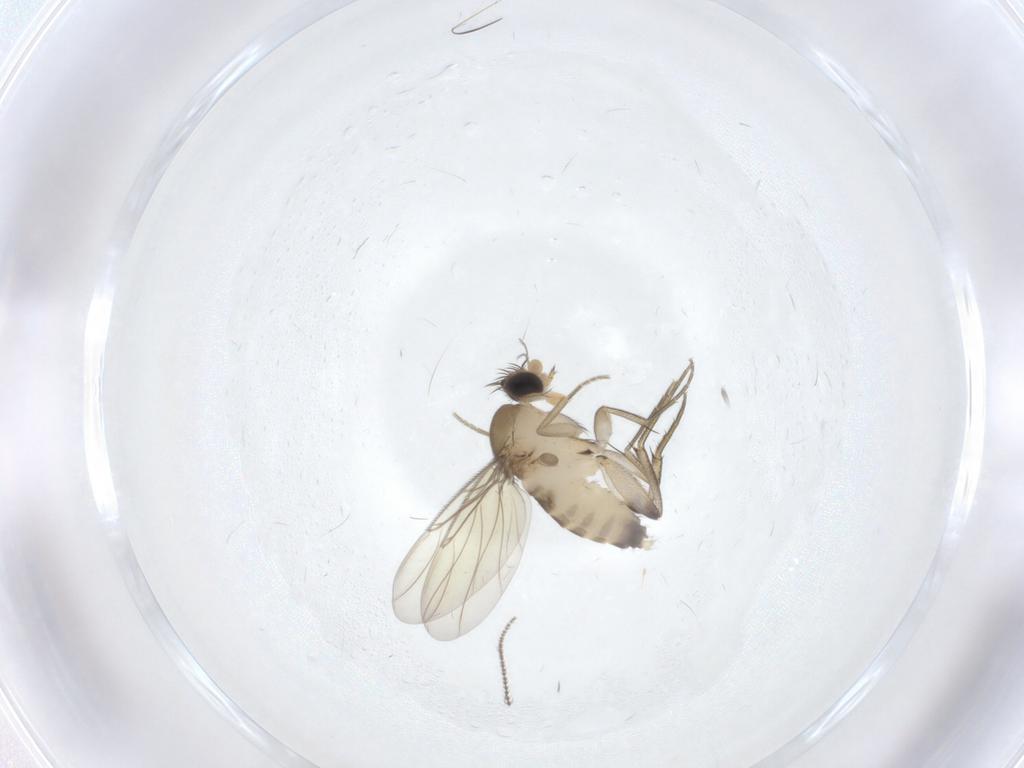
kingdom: Animalia
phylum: Arthropoda
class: Insecta
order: Diptera
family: Phoridae
